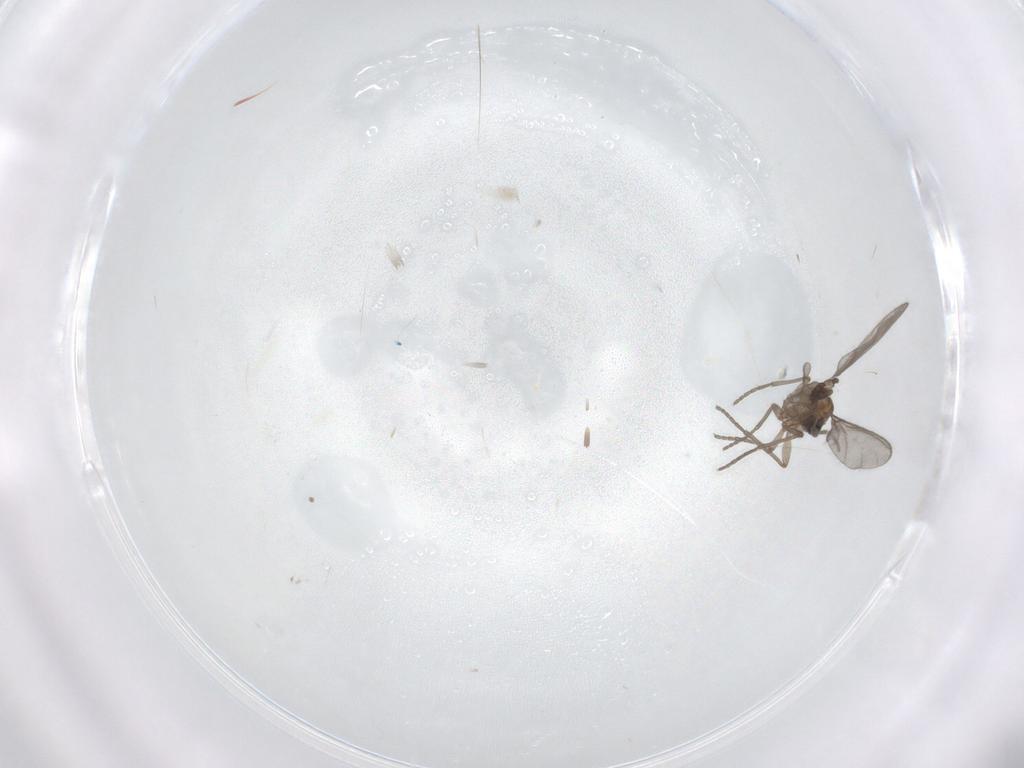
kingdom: Animalia
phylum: Arthropoda
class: Insecta
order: Diptera
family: Sciaridae
